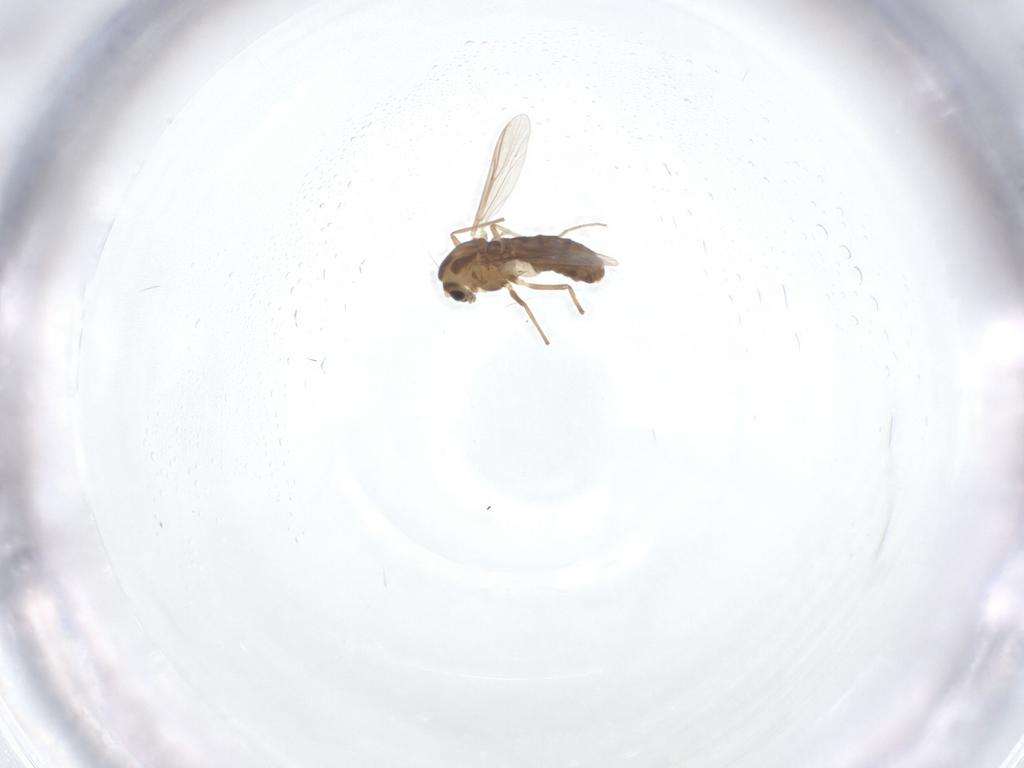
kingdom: Animalia
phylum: Arthropoda
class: Insecta
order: Diptera
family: Chironomidae
